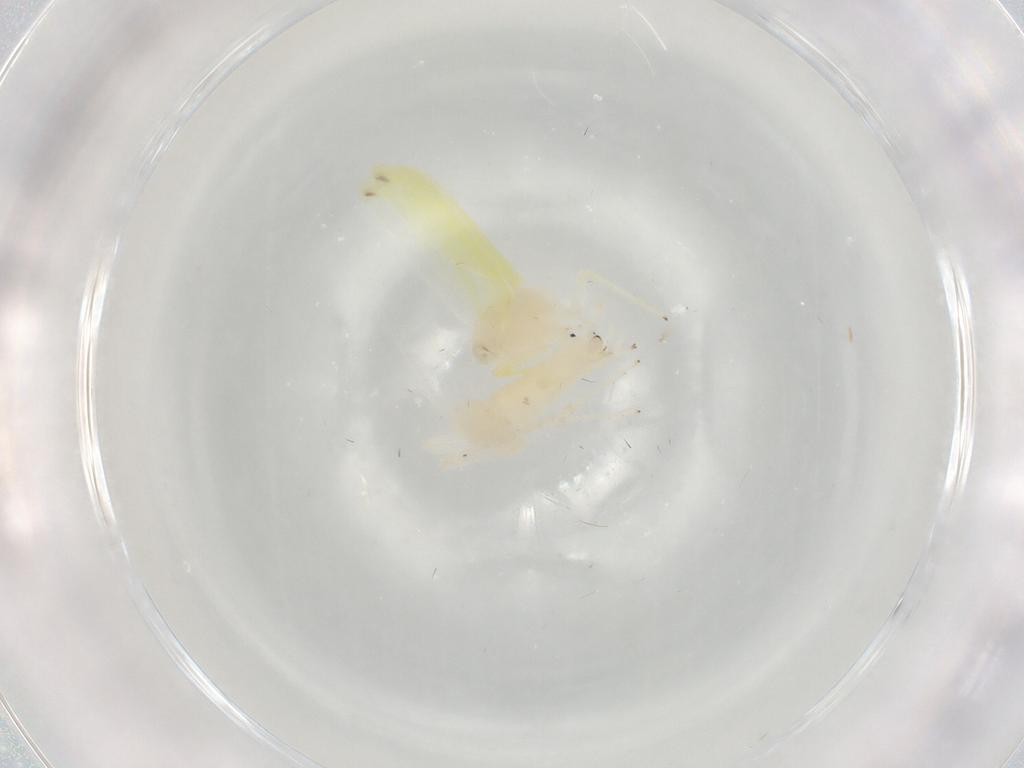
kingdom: Animalia
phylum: Arthropoda
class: Insecta
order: Hemiptera
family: Cicadellidae
